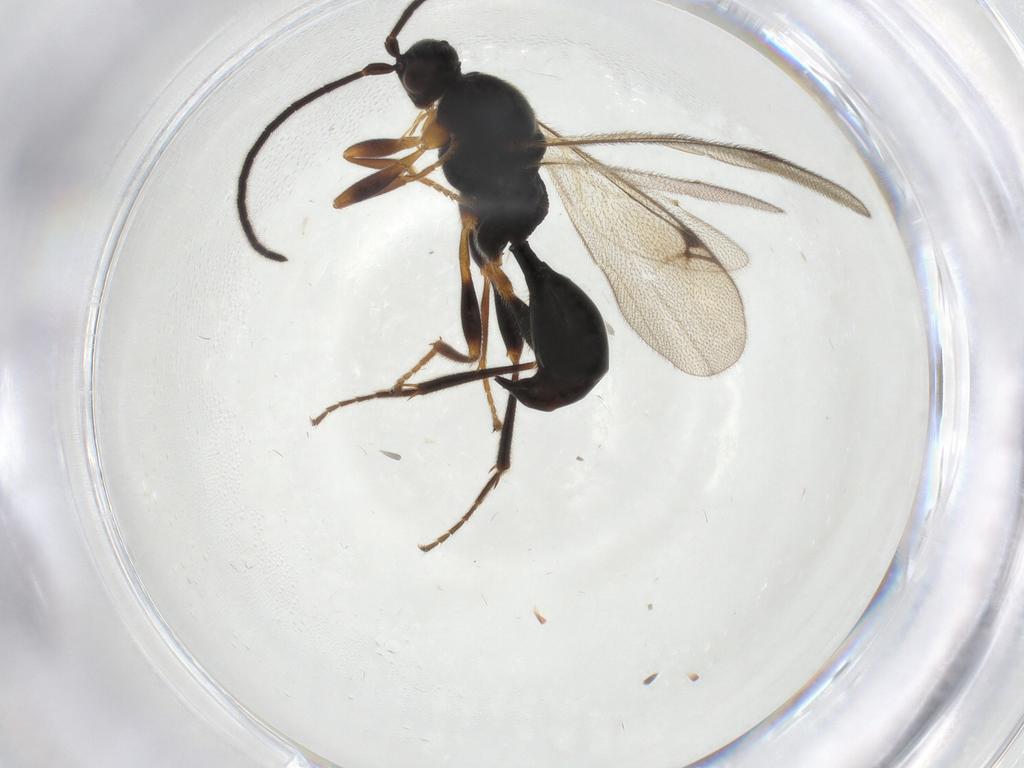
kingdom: Animalia
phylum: Arthropoda
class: Insecta
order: Hymenoptera
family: Proctotrupidae
